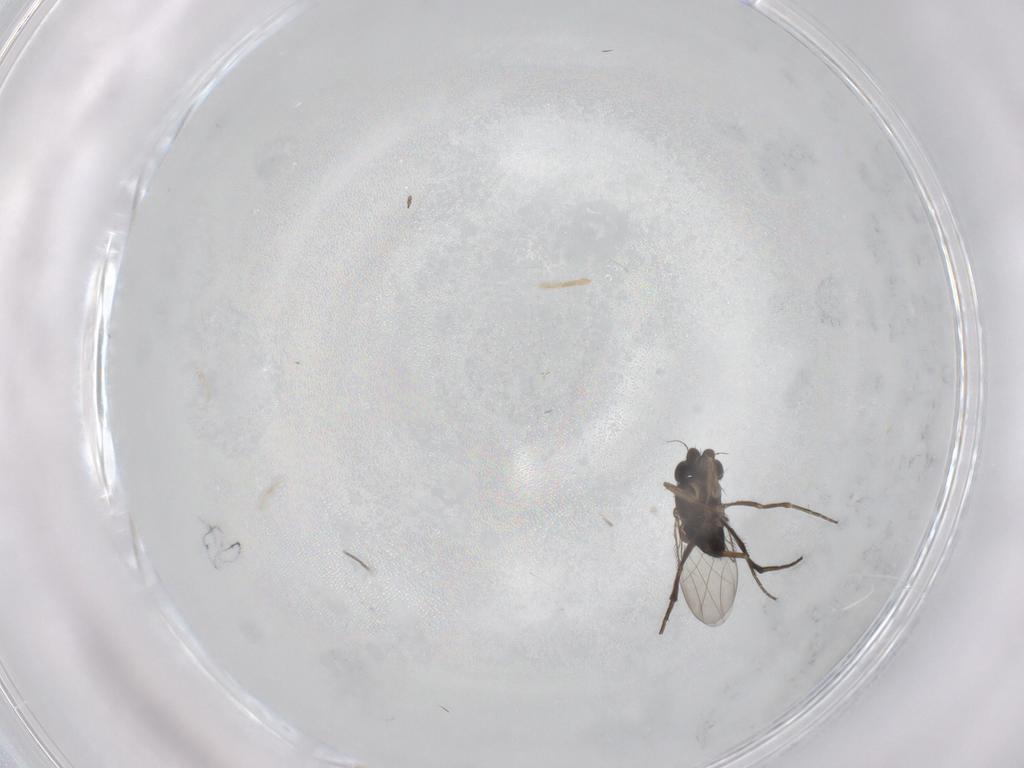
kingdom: Animalia
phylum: Arthropoda
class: Insecta
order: Diptera
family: Phoridae
